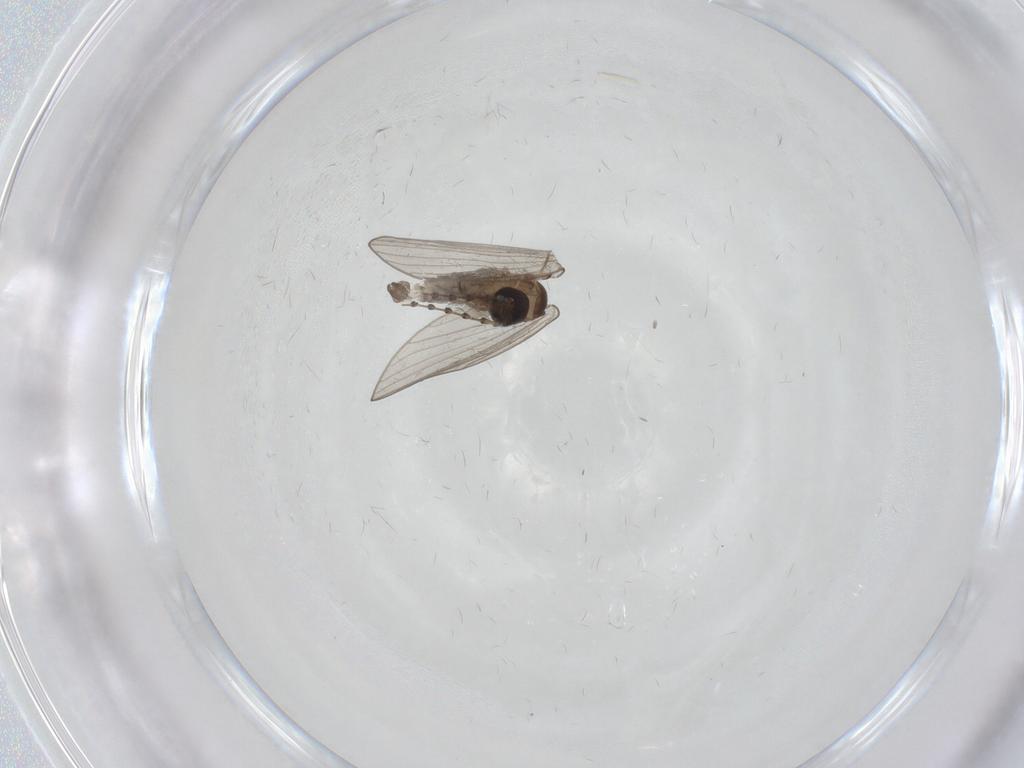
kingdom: Animalia
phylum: Arthropoda
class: Insecta
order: Diptera
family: Psychodidae
